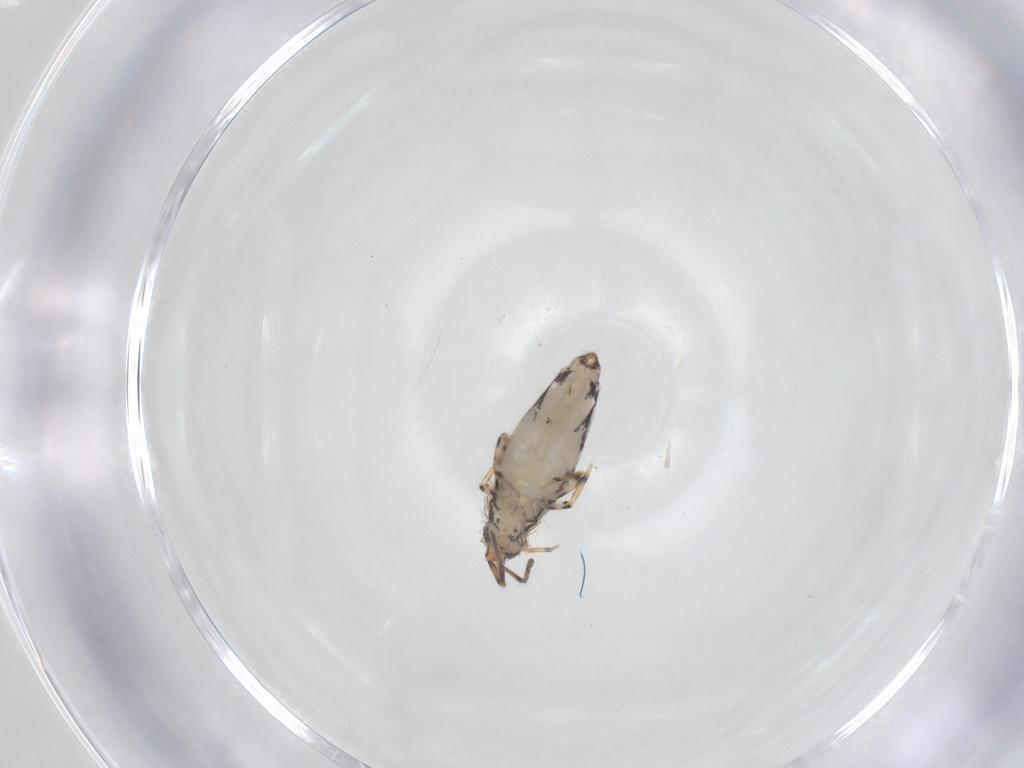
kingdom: Animalia
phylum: Arthropoda
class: Collembola
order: Entomobryomorpha
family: Entomobryidae
